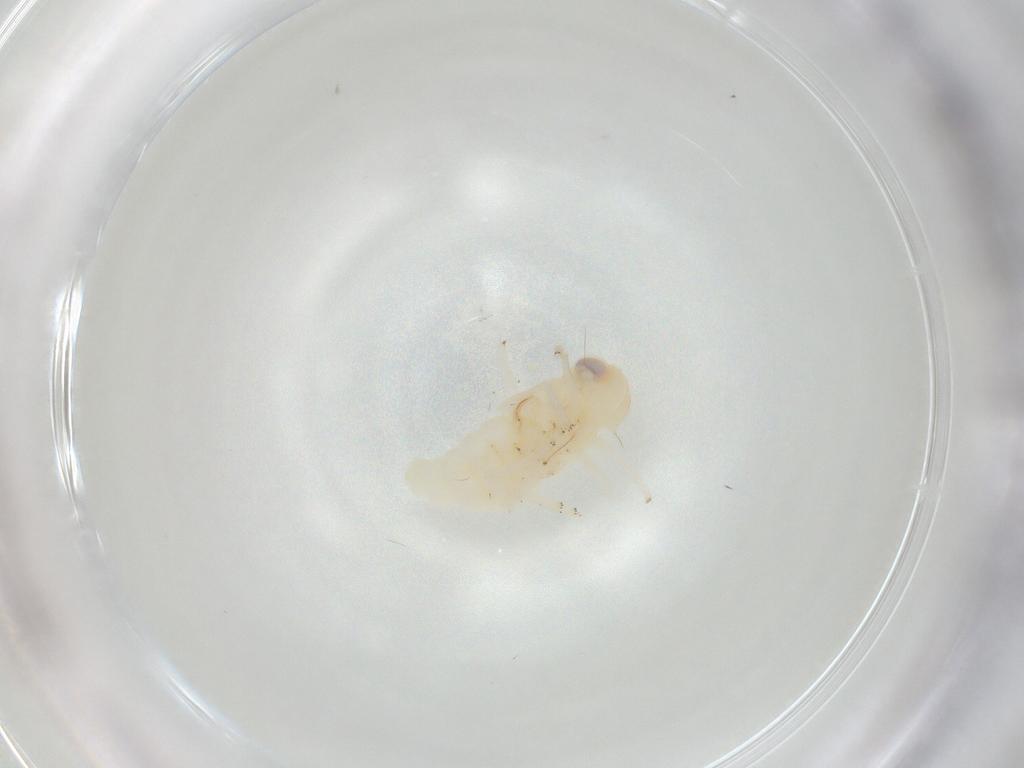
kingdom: Animalia
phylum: Arthropoda
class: Insecta
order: Hemiptera
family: Nogodinidae
